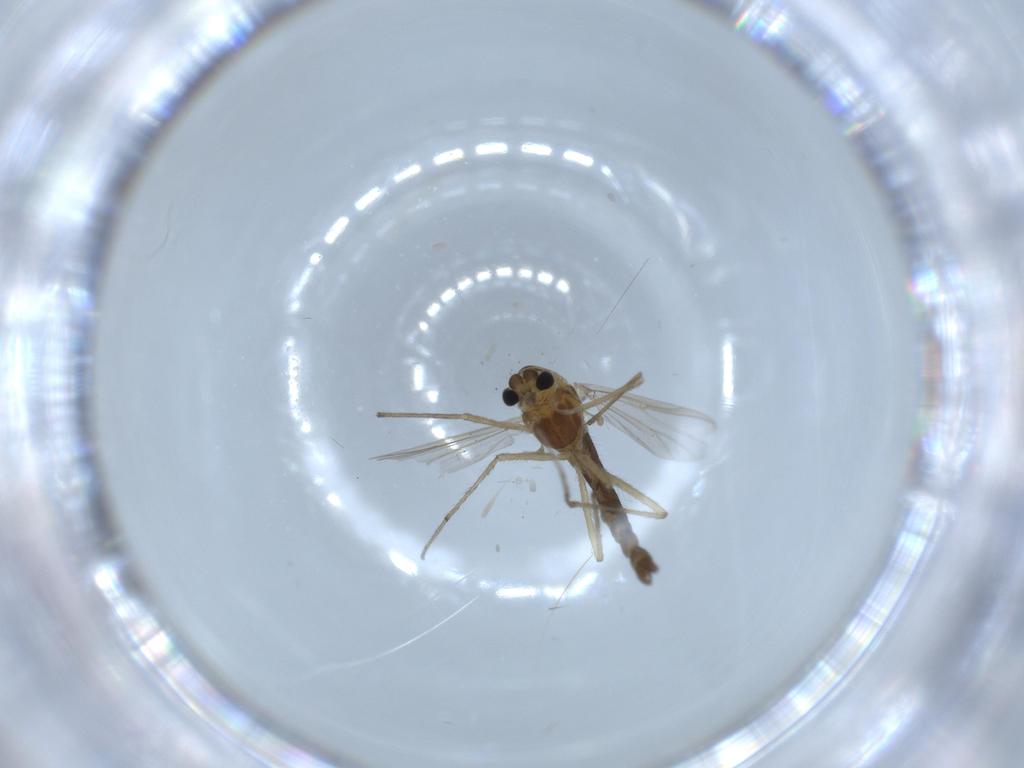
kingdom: Animalia
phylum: Arthropoda
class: Insecta
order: Diptera
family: Chironomidae
